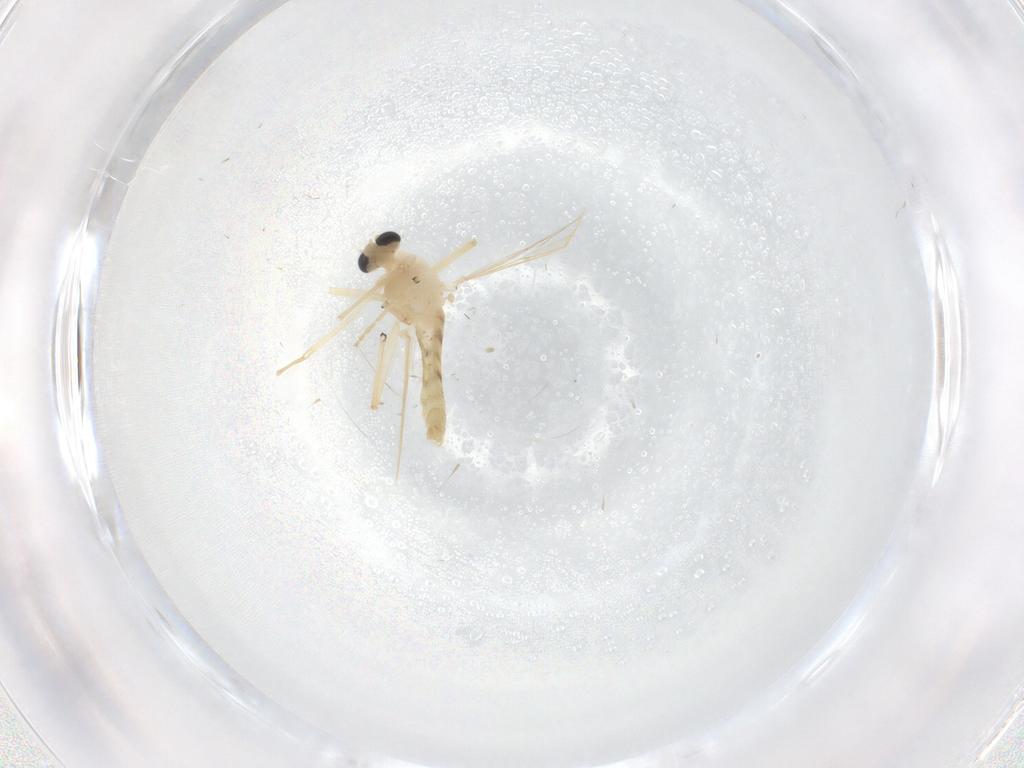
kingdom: Animalia
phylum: Arthropoda
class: Insecta
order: Diptera
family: Chironomidae
